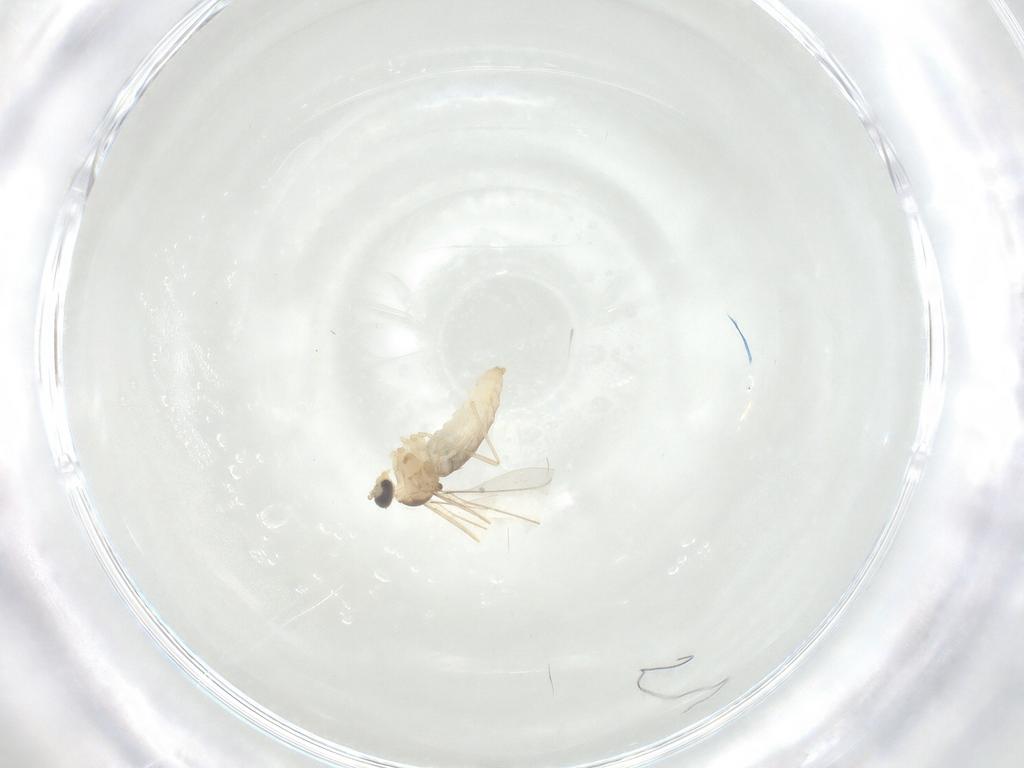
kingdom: Animalia
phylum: Arthropoda
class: Insecta
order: Diptera
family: Cecidomyiidae
